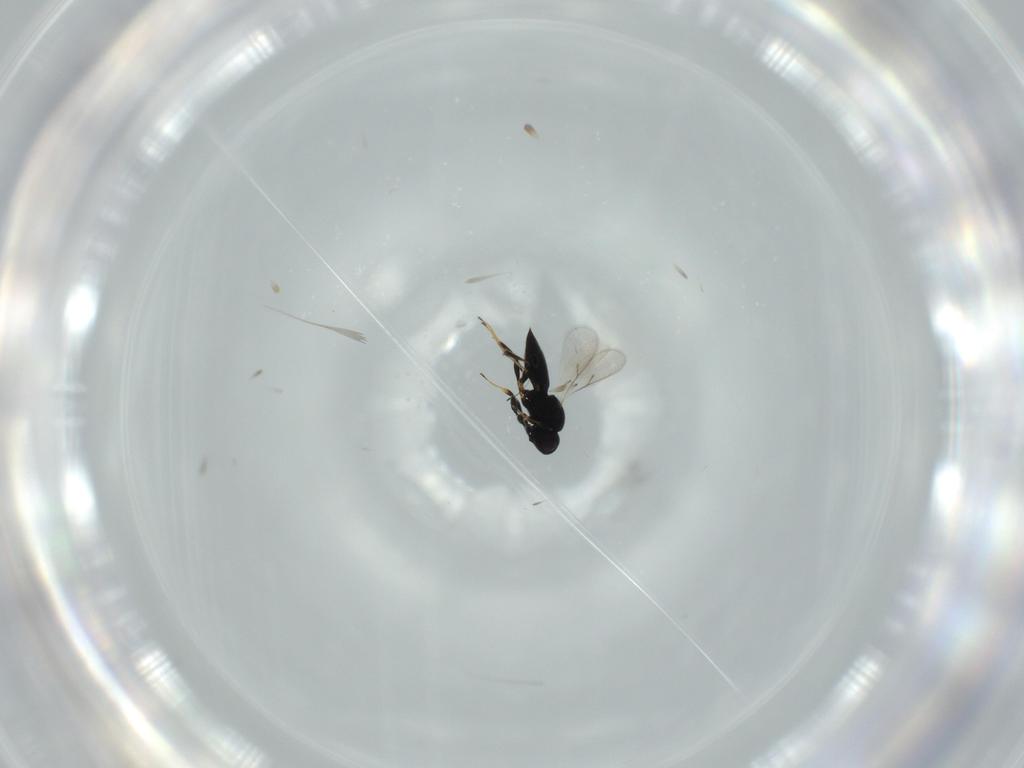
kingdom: Animalia
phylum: Arthropoda
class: Insecta
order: Hymenoptera
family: Scelionidae
